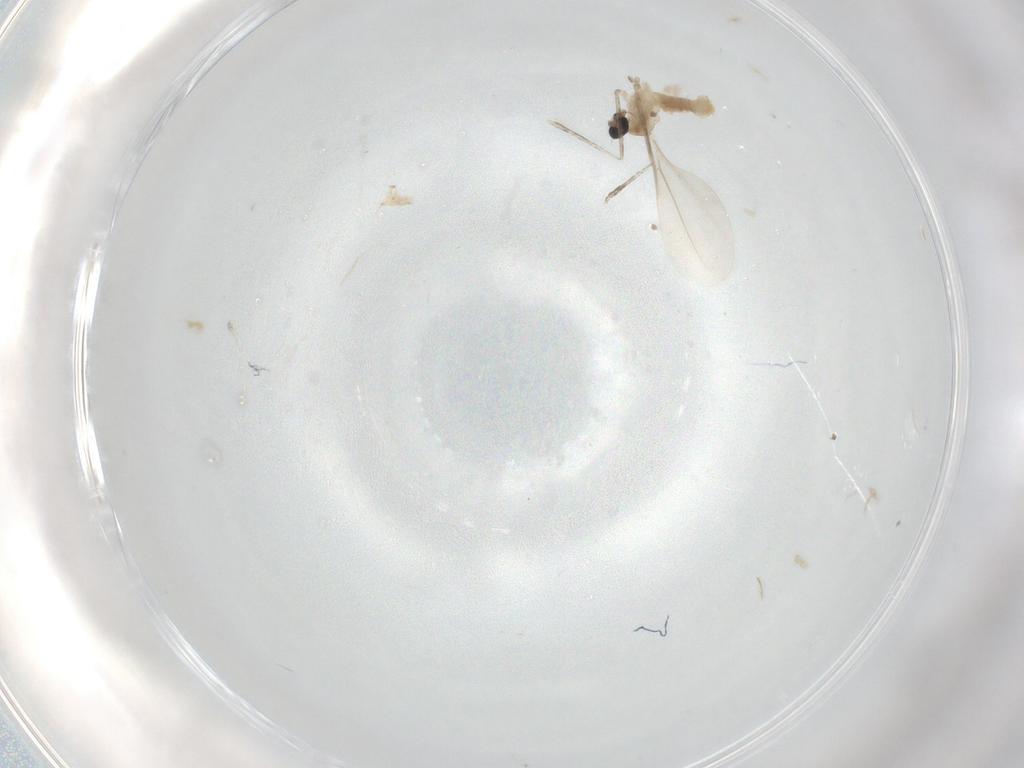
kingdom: Animalia
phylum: Arthropoda
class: Insecta
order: Diptera
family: Cecidomyiidae
